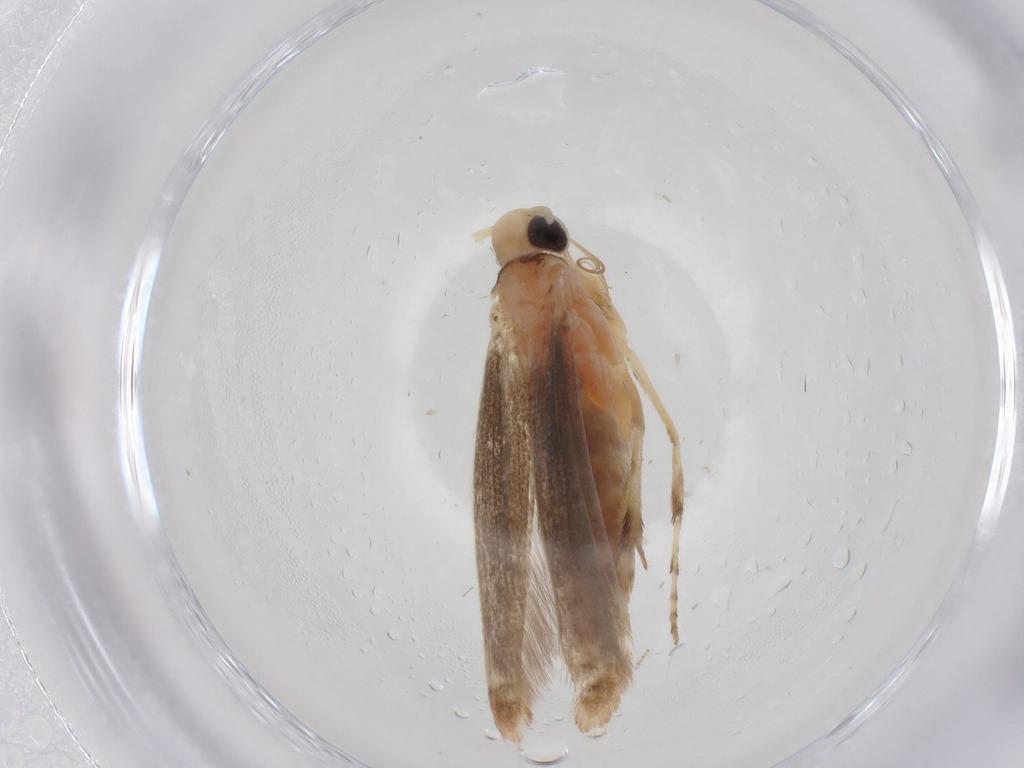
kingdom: Animalia
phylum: Arthropoda
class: Insecta
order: Lepidoptera
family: Gracillariidae
